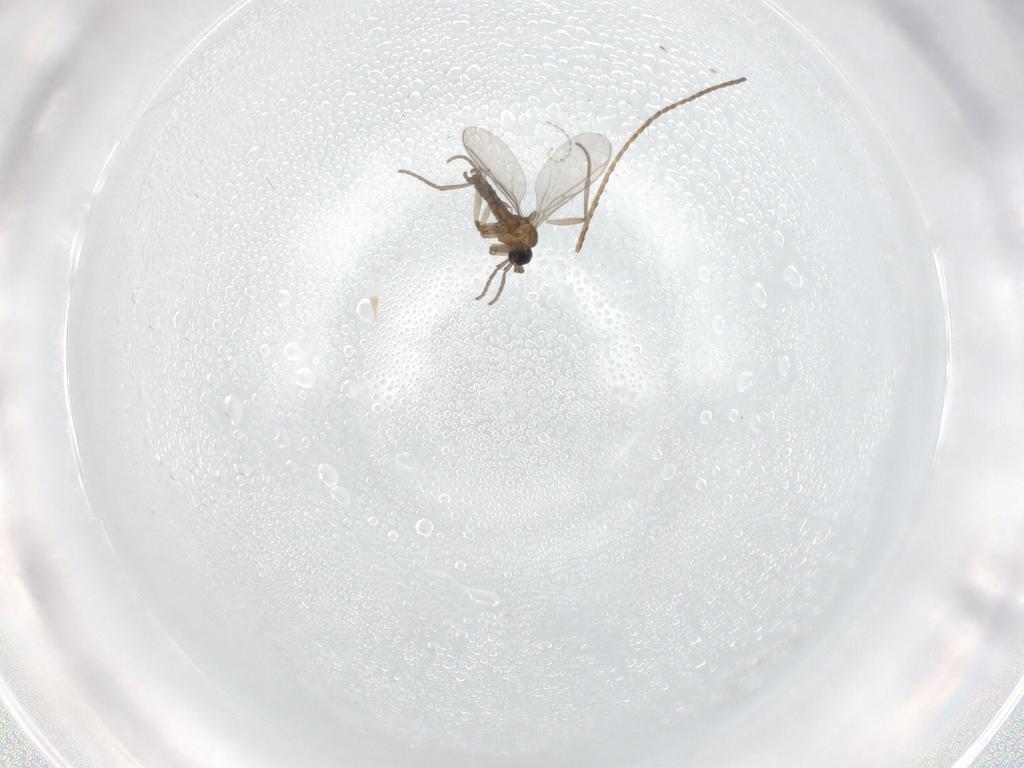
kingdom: Animalia
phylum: Arthropoda
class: Insecta
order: Diptera
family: Cecidomyiidae
